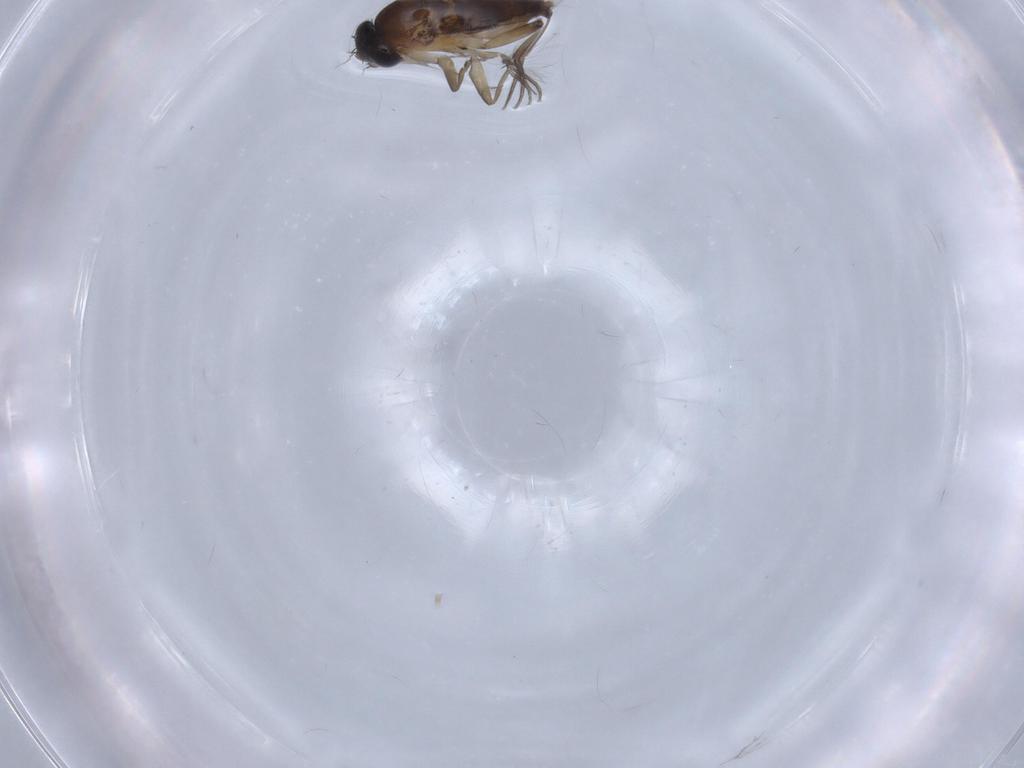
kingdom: Animalia
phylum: Arthropoda
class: Insecta
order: Diptera
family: Phoridae
